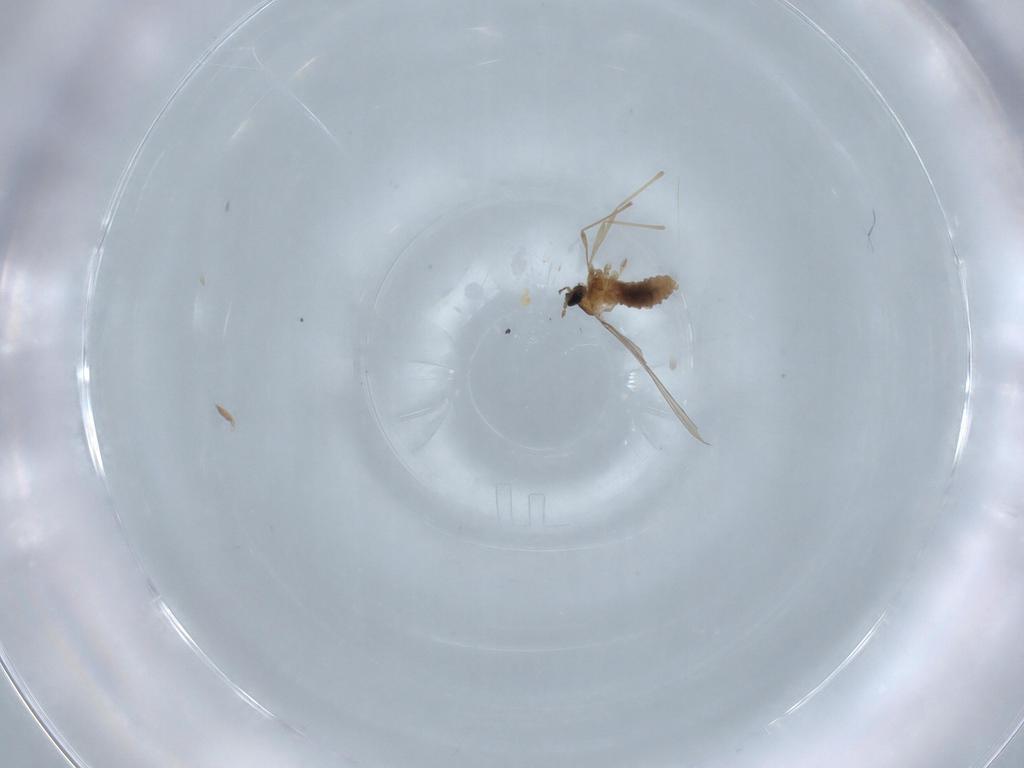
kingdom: Animalia
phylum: Arthropoda
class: Insecta
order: Diptera
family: Cecidomyiidae
